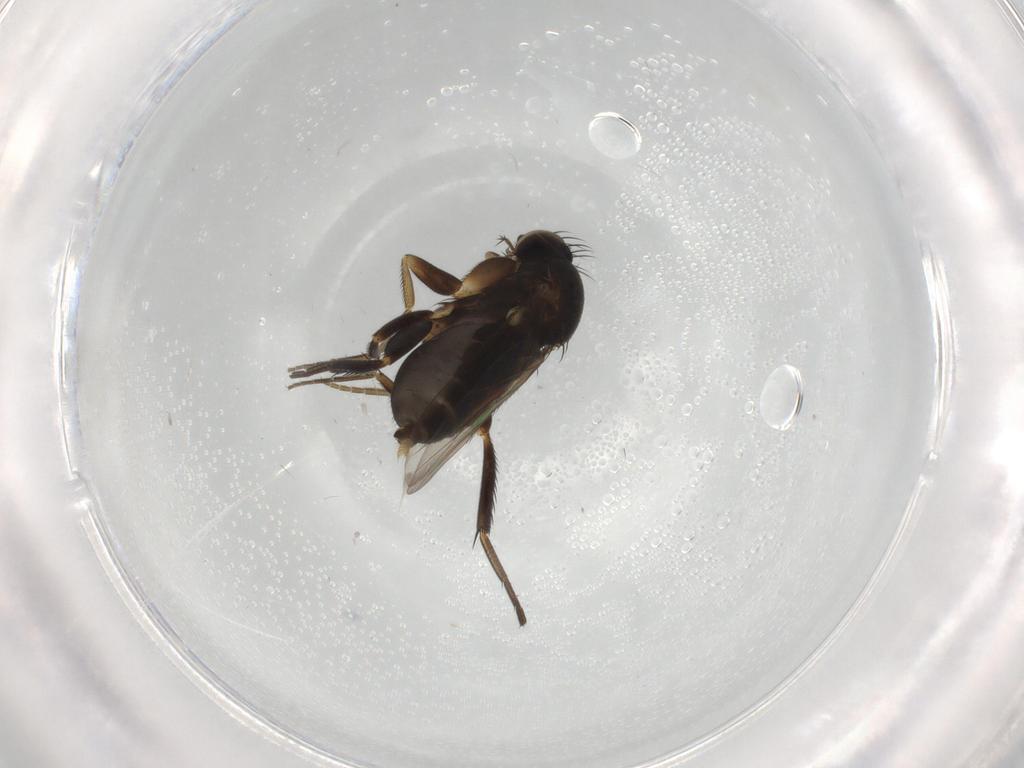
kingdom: Animalia
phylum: Arthropoda
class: Insecta
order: Diptera
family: Phoridae
